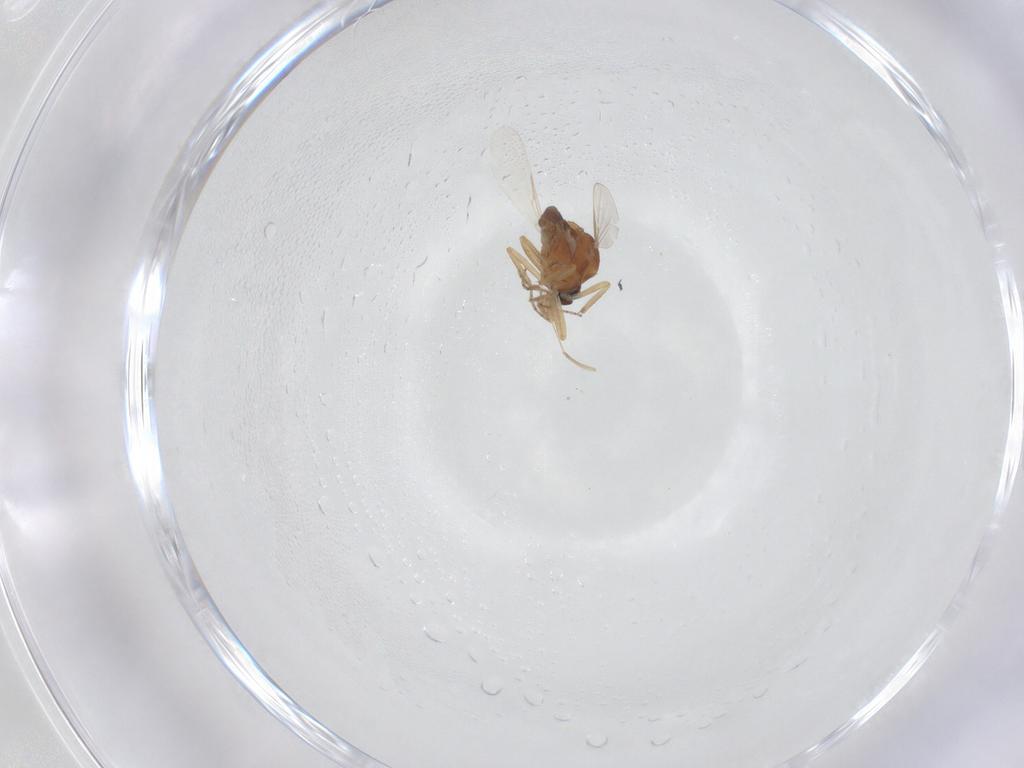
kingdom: Animalia
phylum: Arthropoda
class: Insecta
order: Diptera
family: Ceratopogonidae
